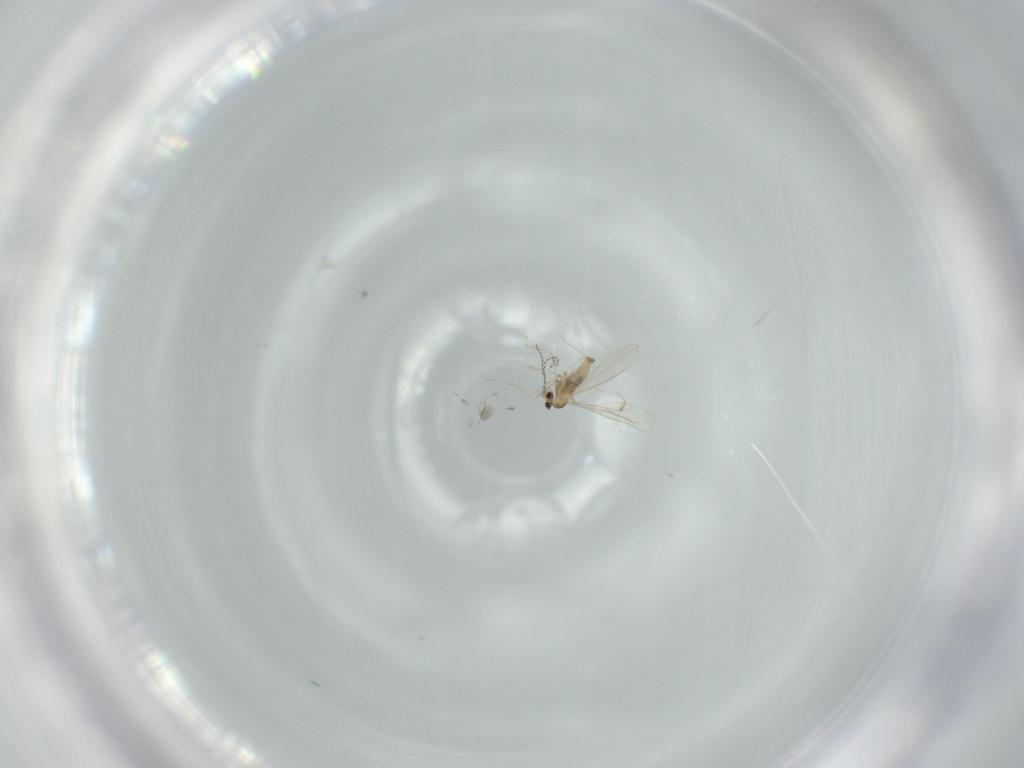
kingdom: Animalia
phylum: Arthropoda
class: Insecta
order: Diptera
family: Cecidomyiidae
